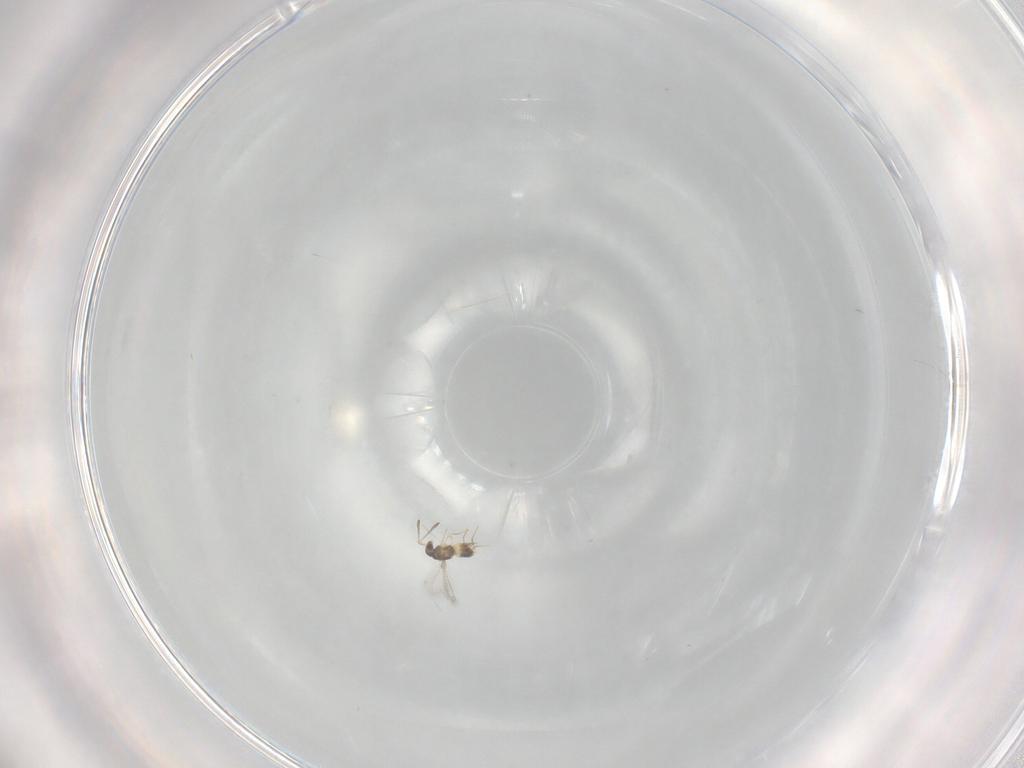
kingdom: Animalia
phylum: Arthropoda
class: Insecta
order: Hymenoptera
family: Mymaridae
